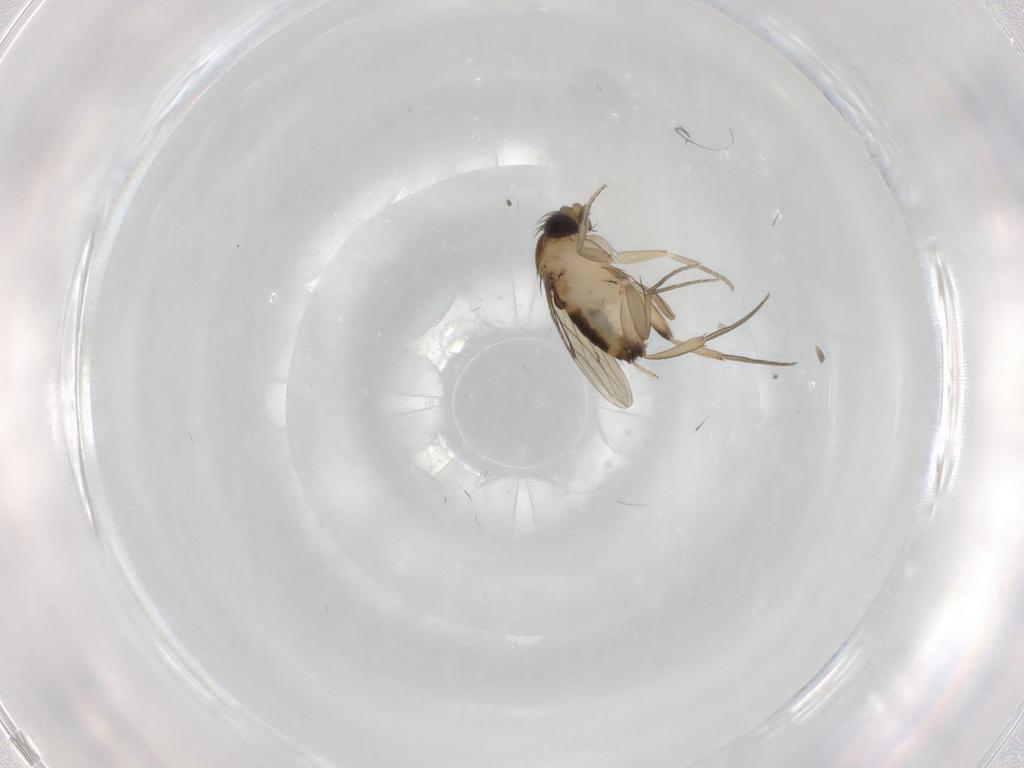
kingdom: Animalia
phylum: Arthropoda
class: Insecta
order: Diptera
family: Phoridae
